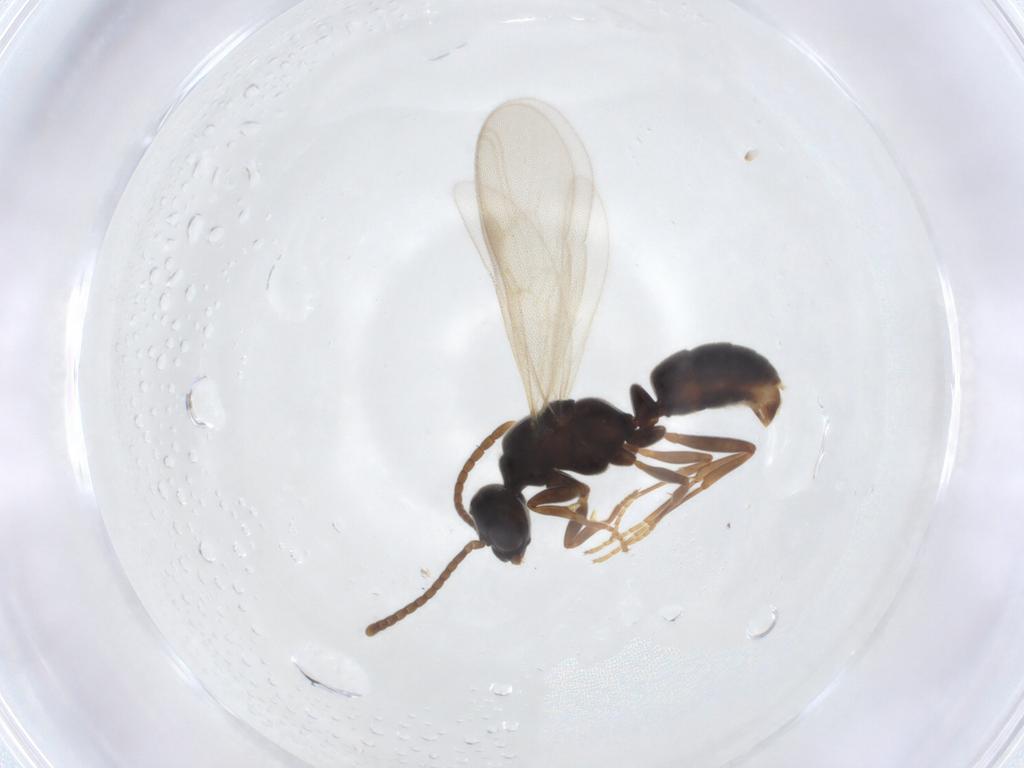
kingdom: Animalia
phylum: Arthropoda
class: Insecta
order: Hymenoptera
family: Formicidae
